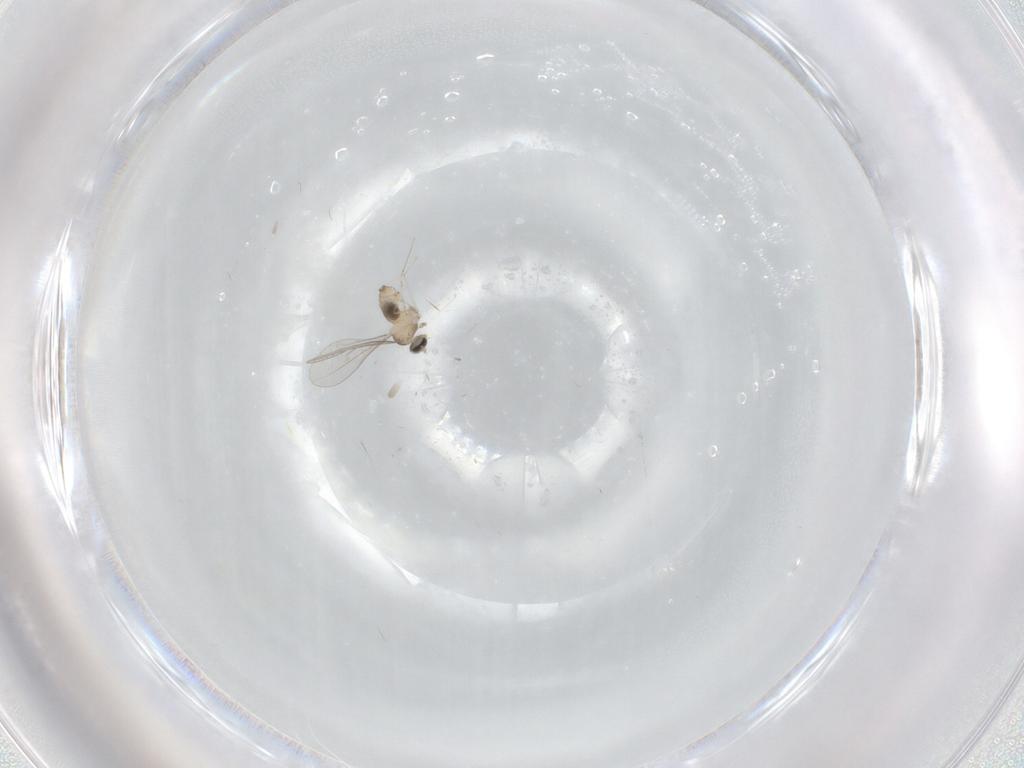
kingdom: Animalia
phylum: Arthropoda
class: Insecta
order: Diptera
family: Cecidomyiidae
